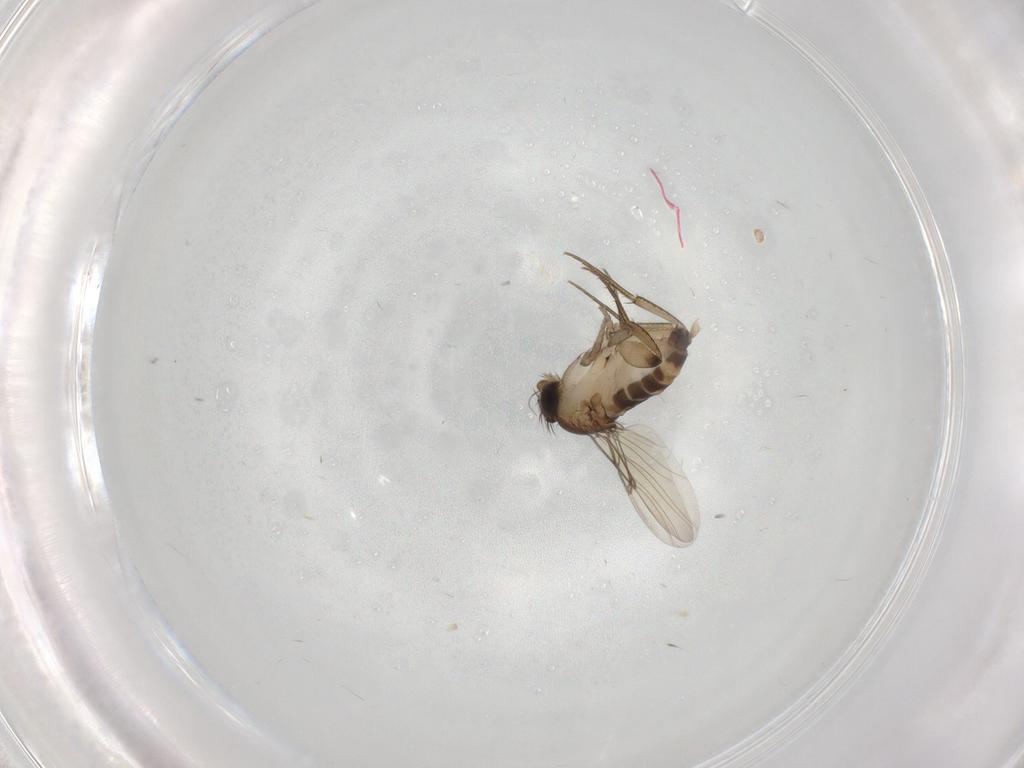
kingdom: Animalia
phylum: Arthropoda
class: Insecta
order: Diptera
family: Phoridae
